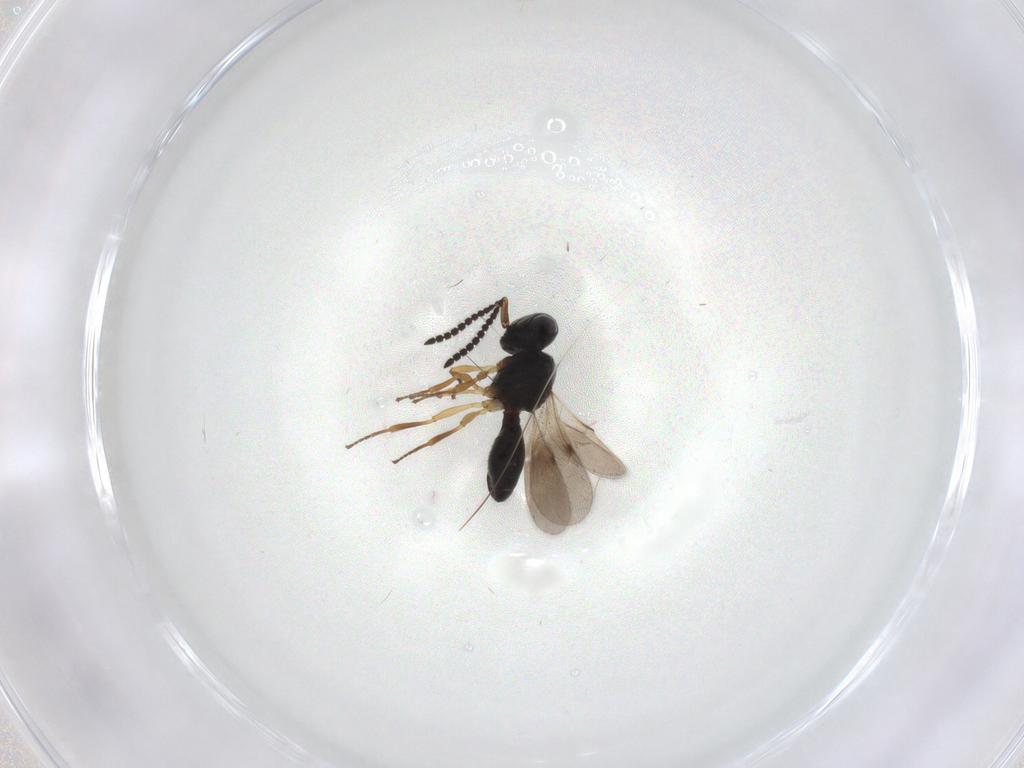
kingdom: Animalia
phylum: Arthropoda
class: Insecta
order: Hymenoptera
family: Scelionidae
